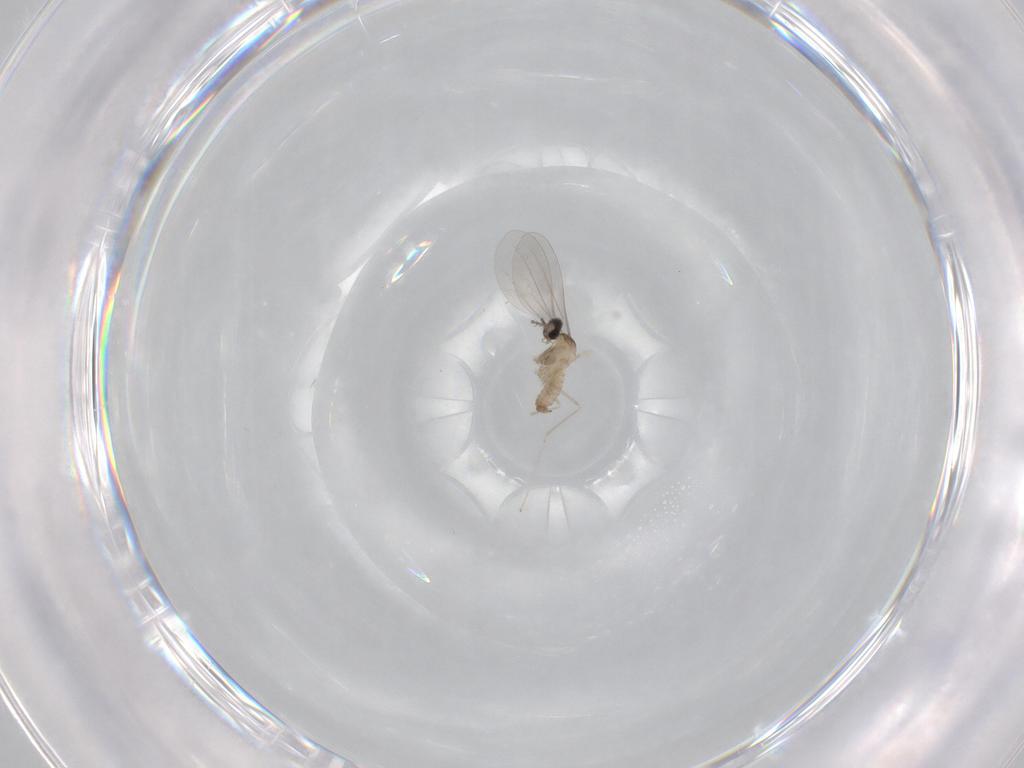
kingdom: Animalia
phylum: Arthropoda
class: Insecta
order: Diptera
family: Cecidomyiidae
